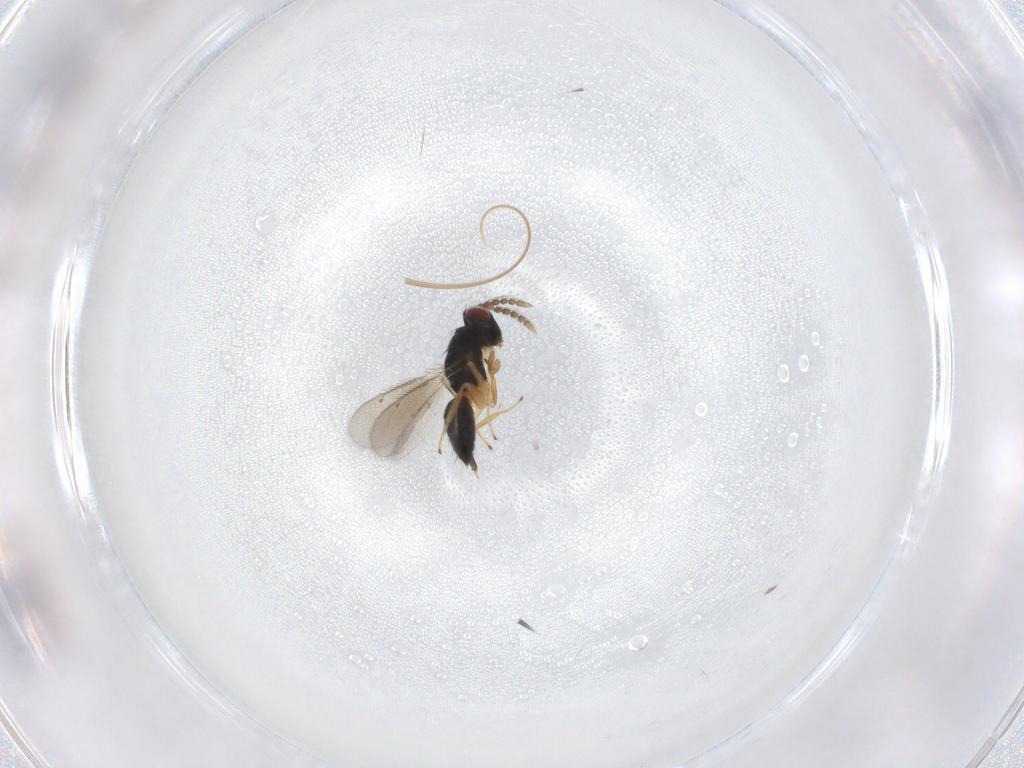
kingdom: Animalia
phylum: Arthropoda
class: Insecta
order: Hymenoptera
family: Eulophidae
